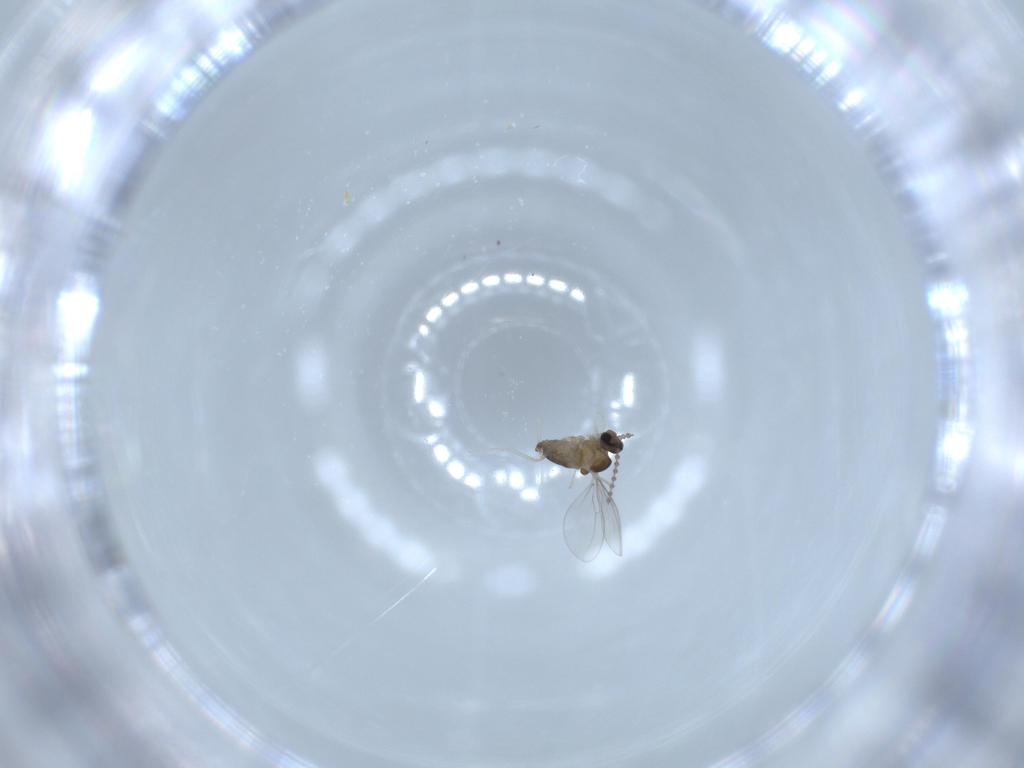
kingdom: Animalia
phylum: Arthropoda
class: Insecta
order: Diptera
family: Cecidomyiidae
